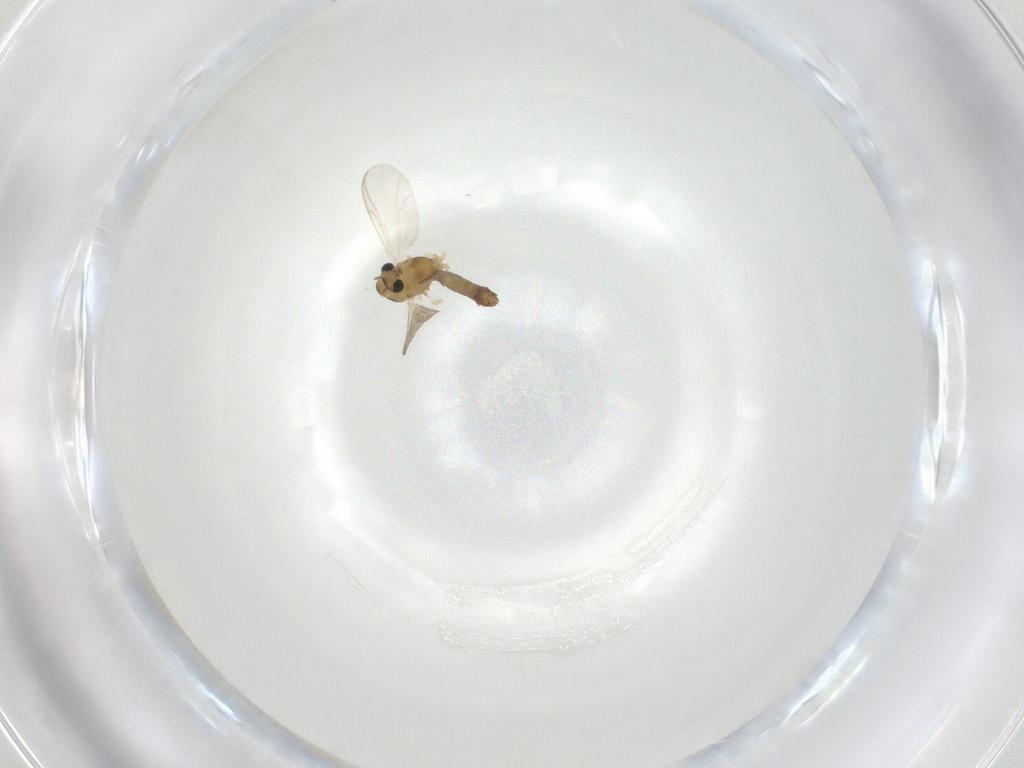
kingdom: Animalia
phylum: Arthropoda
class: Insecta
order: Diptera
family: Chironomidae
